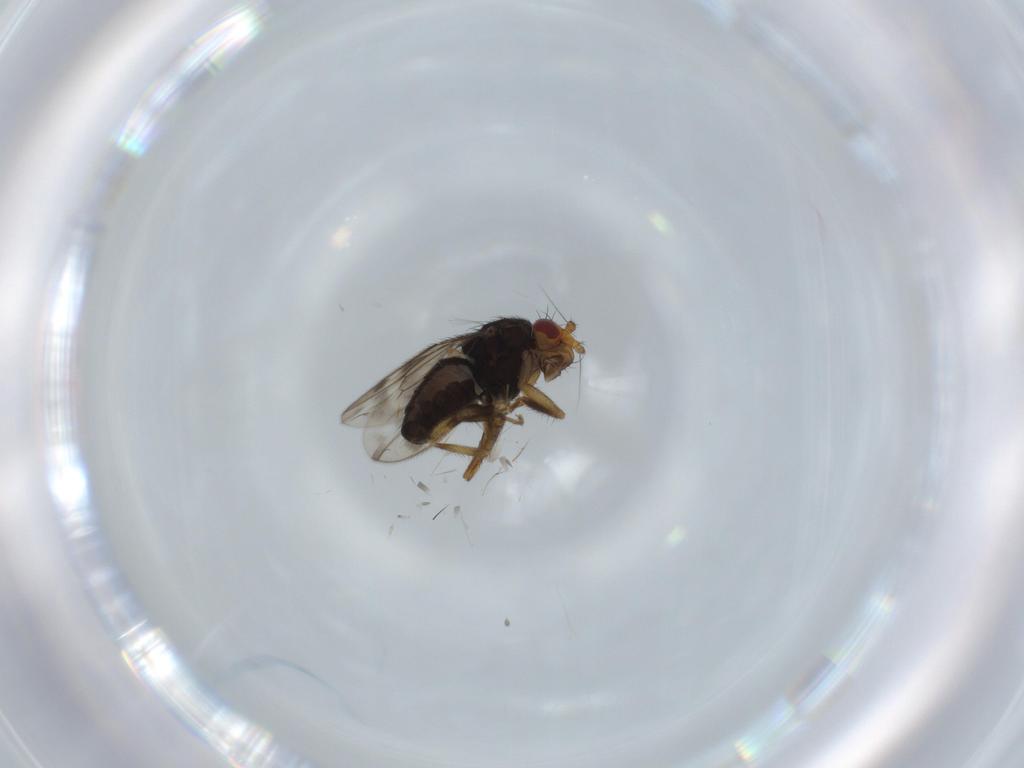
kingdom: Animalia
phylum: Arthropoda
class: Insecta
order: Diptera
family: Sphaeroceridae
